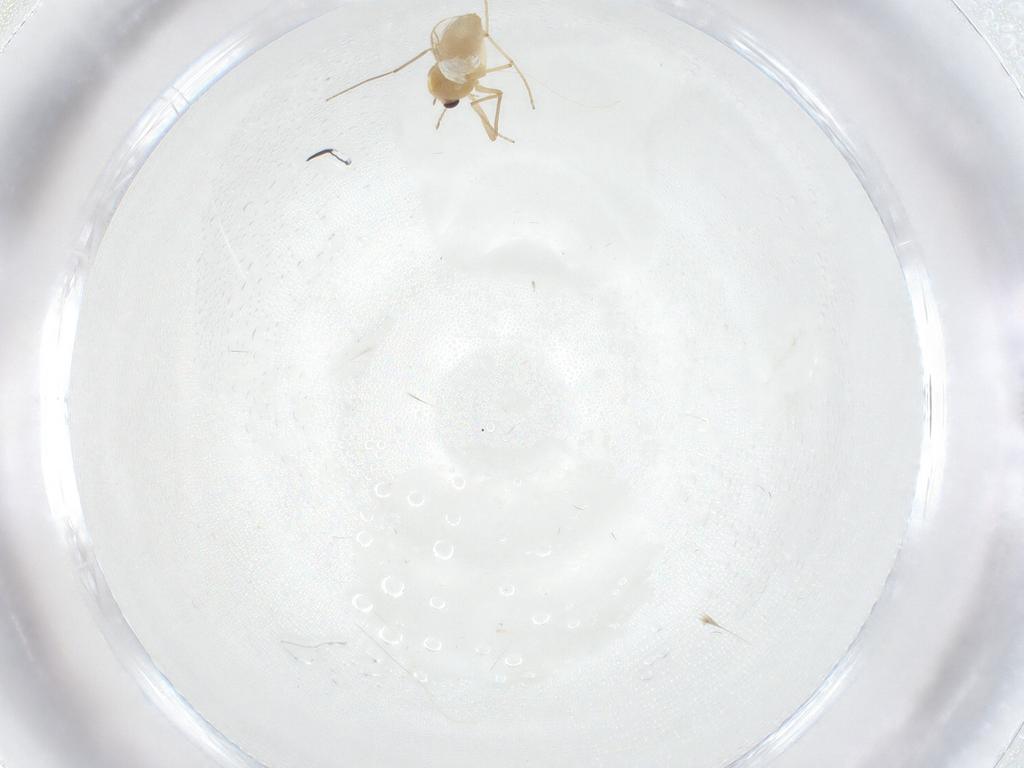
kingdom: Animalia
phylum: Arthropoda
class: Insecta
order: Diptera
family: Chironomidae
